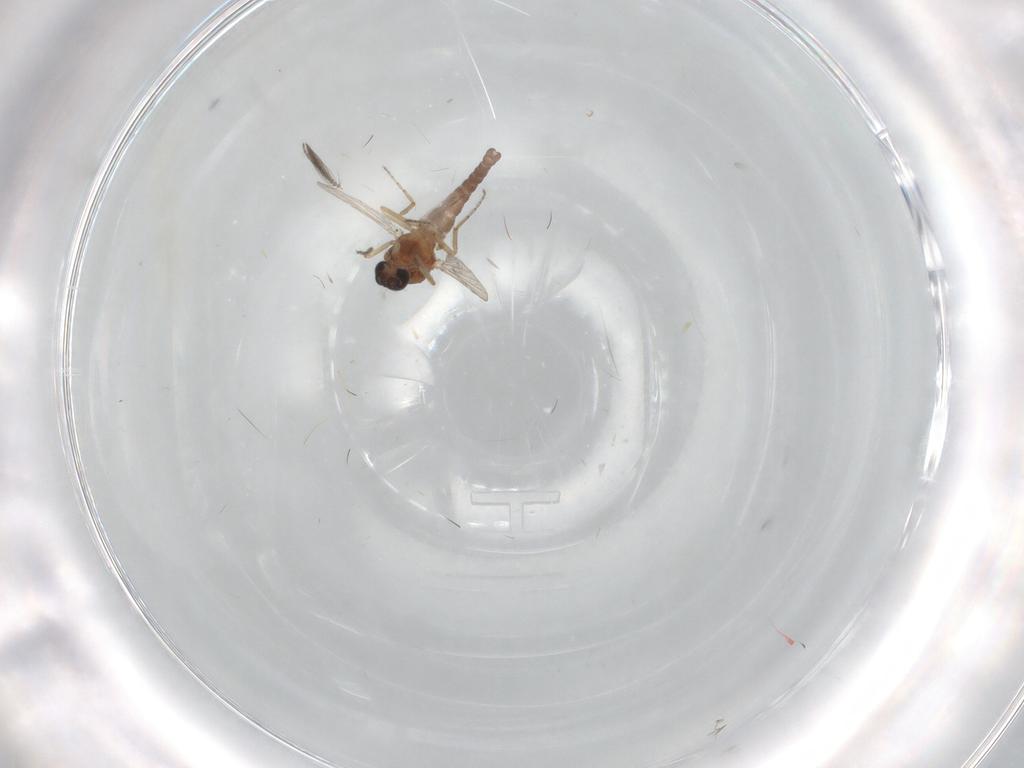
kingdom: Animalia
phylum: Arthropoda
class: Insecta
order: Diptera
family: Ceratopogonidae
